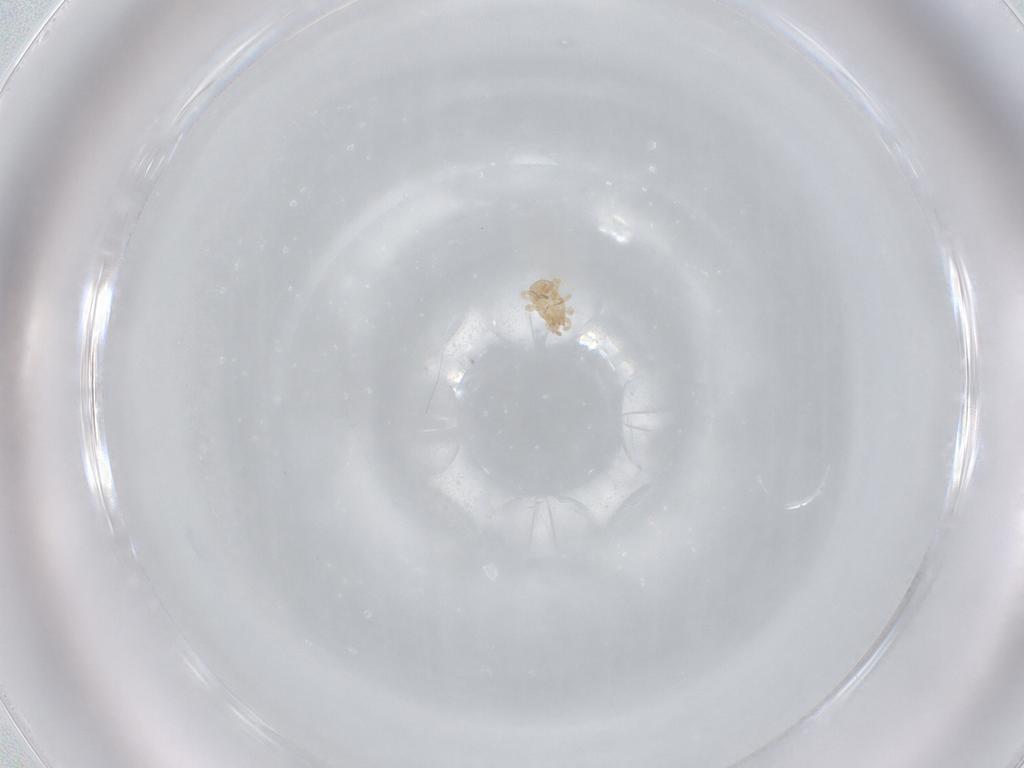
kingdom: Animalia
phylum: Arthropoda
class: Arachnida
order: Mesostigmata
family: Blattisociidae
